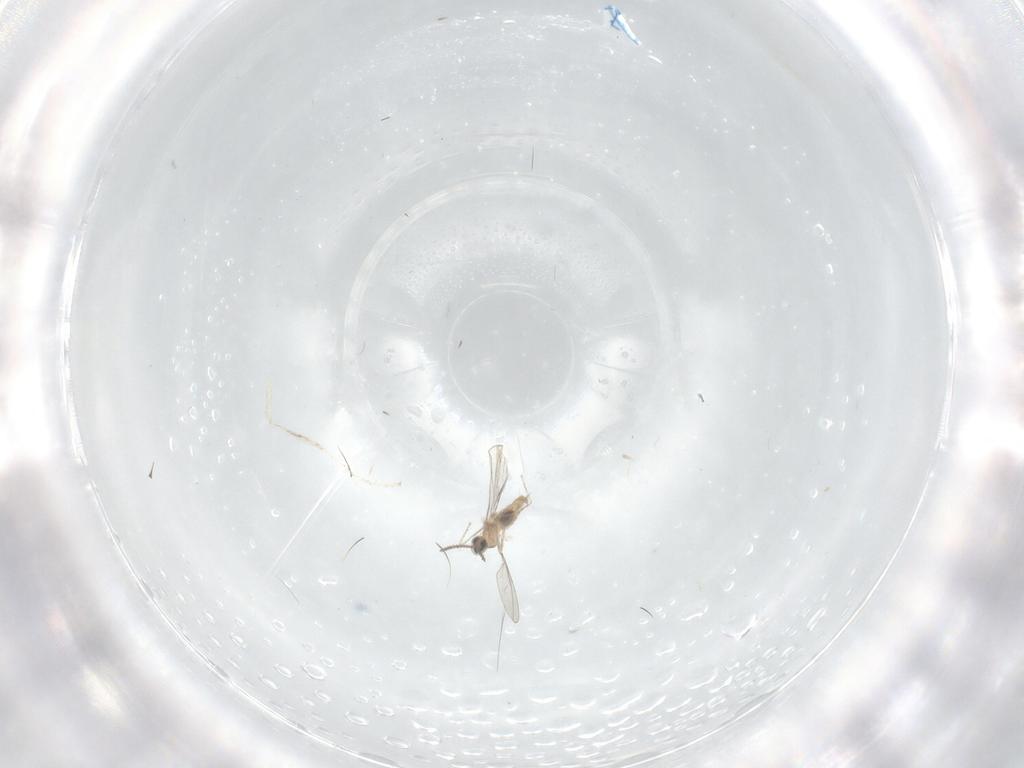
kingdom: Animalia
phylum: Arthropoda
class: Insecta
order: Diptera
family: Cecidomyiidae
